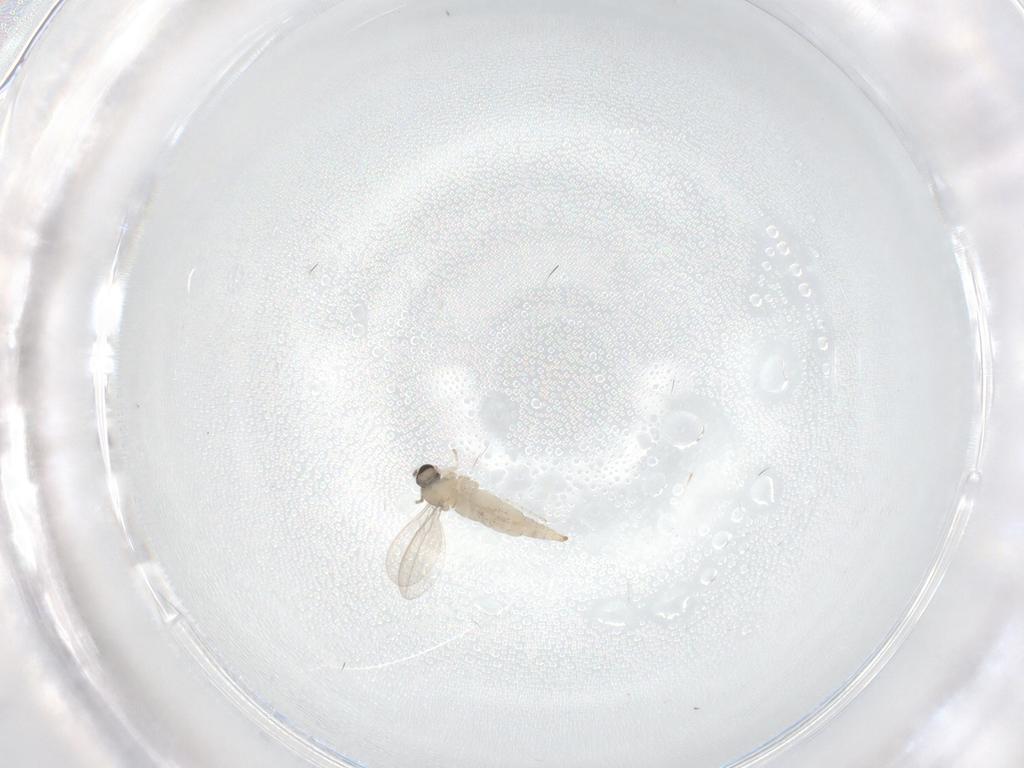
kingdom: Animalia
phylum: Arthropoda
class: Insecta
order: Diptera
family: Cecidomyiidae
